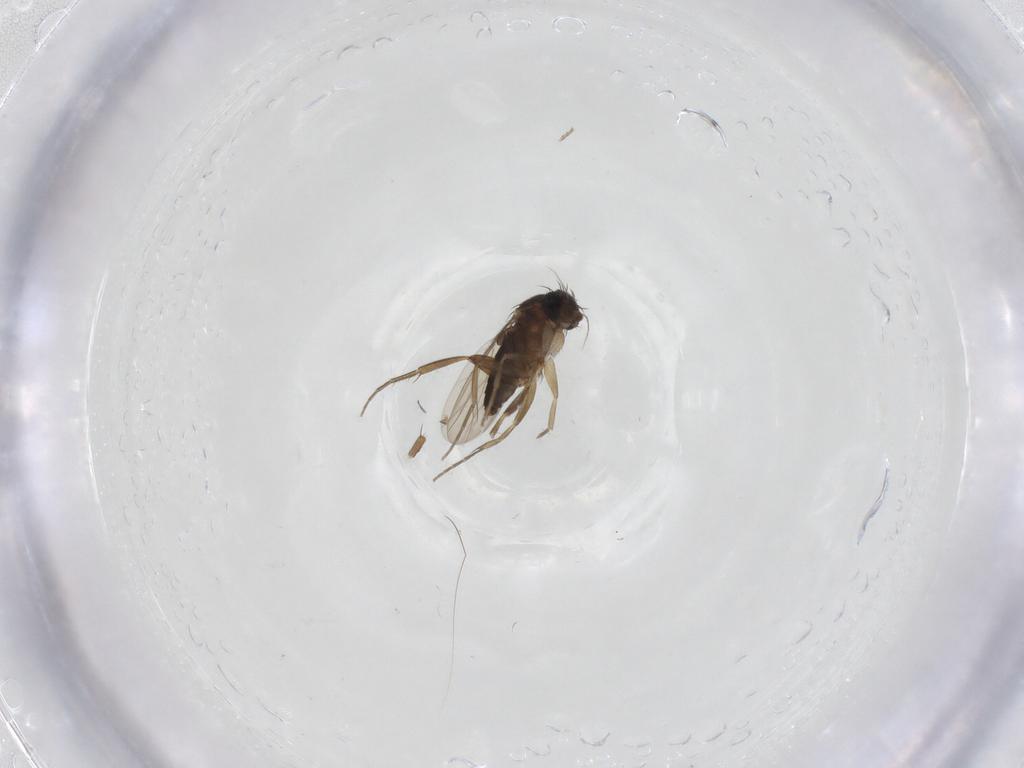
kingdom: Animalia
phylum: Arthropoda
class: Insecta
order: Diptera
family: Phoridae
